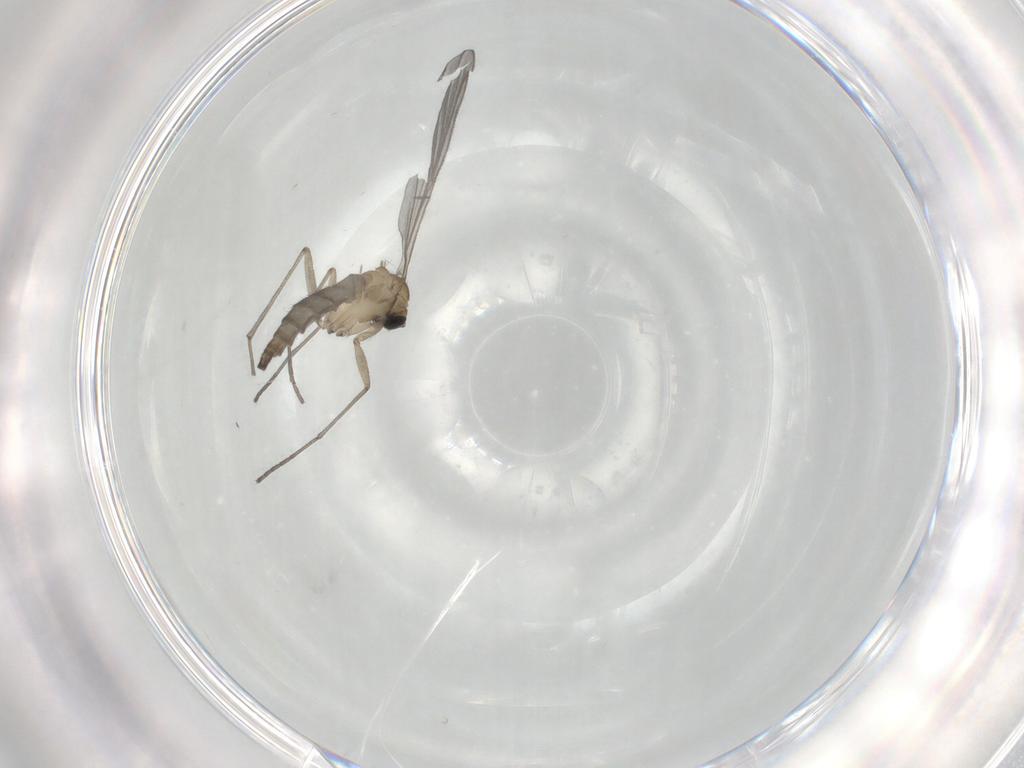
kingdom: Animalia
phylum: Arthropoda
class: Insecta
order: Diptera
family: Sciaridae
